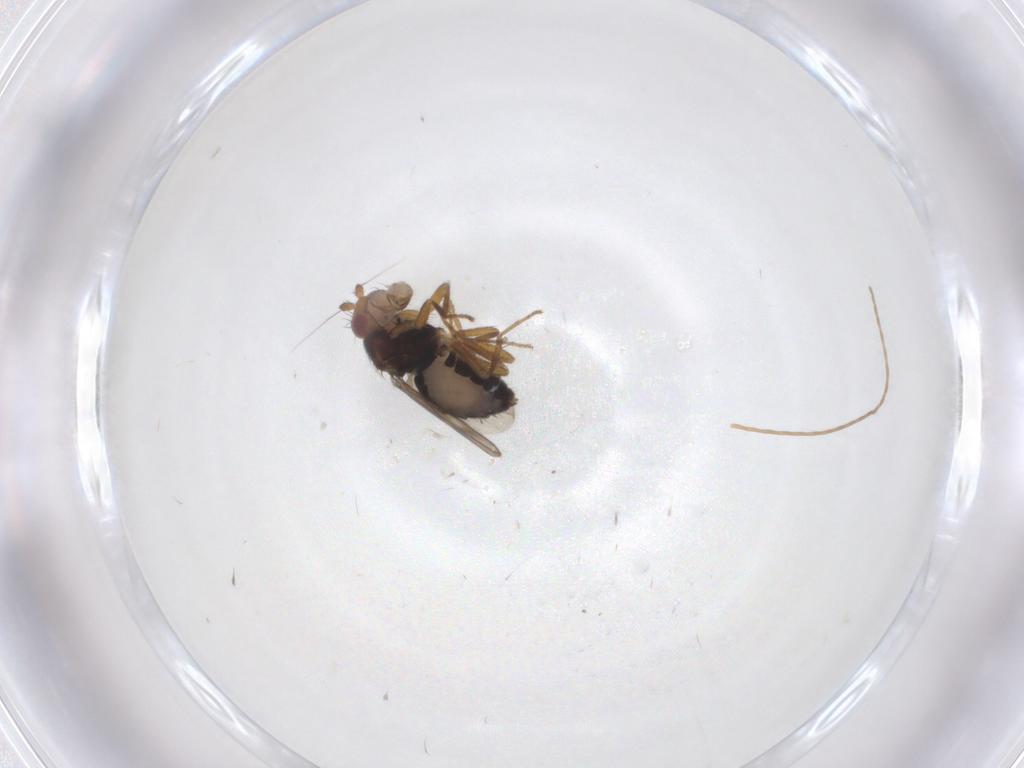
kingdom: Animalia
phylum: Arthropoda
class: Insecta
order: Diptera
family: Sphaeroceridae
